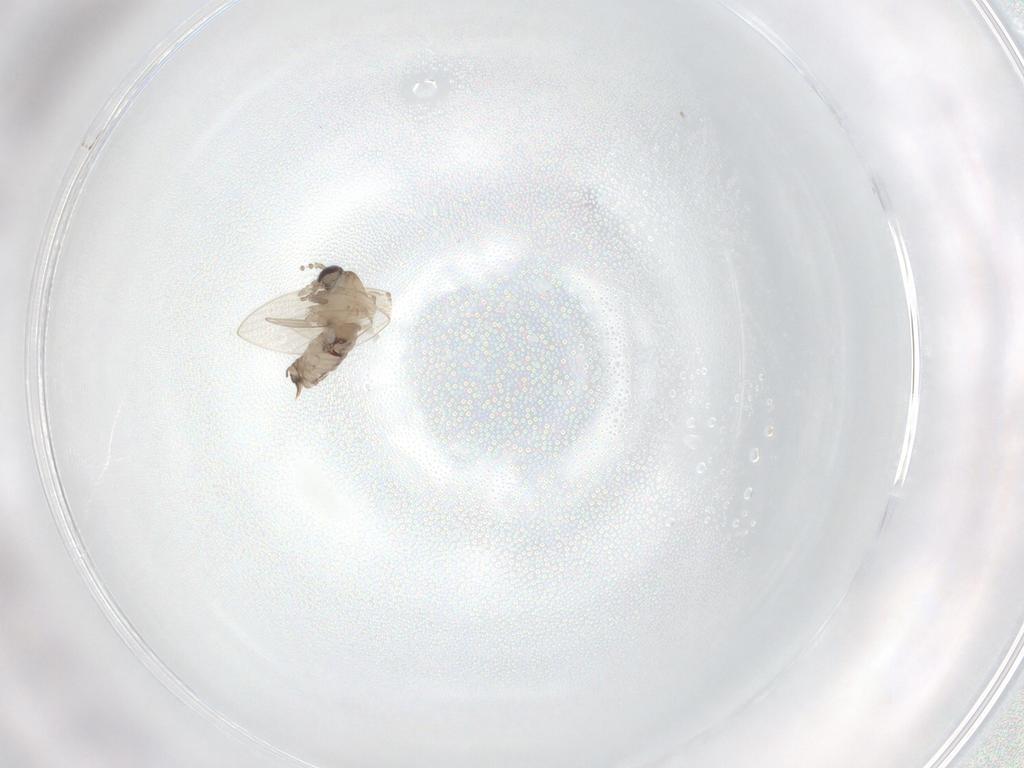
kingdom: Animalia
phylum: Arthropoda
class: Insecta
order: Diptera
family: Psychodidae
